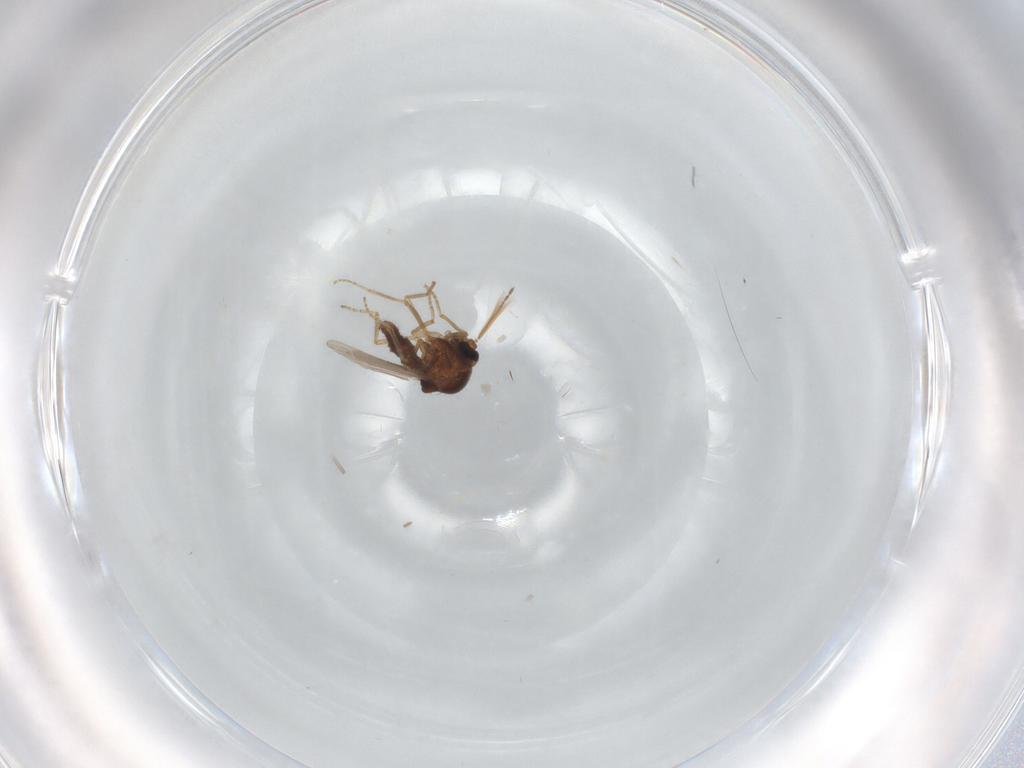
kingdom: Animalia
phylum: Arthropoda
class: Insecta
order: Diptera
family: Ceratopogonidae
